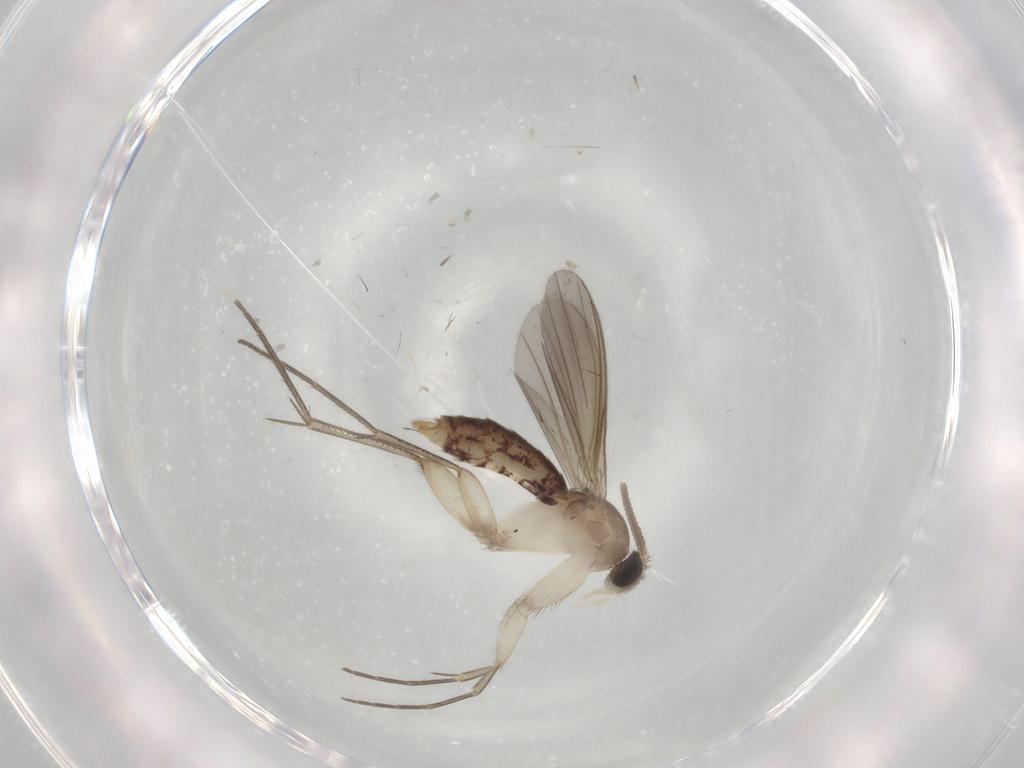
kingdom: Animalia
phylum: Arthropoda
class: Insecta
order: Diptera
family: Mycetophilidae
